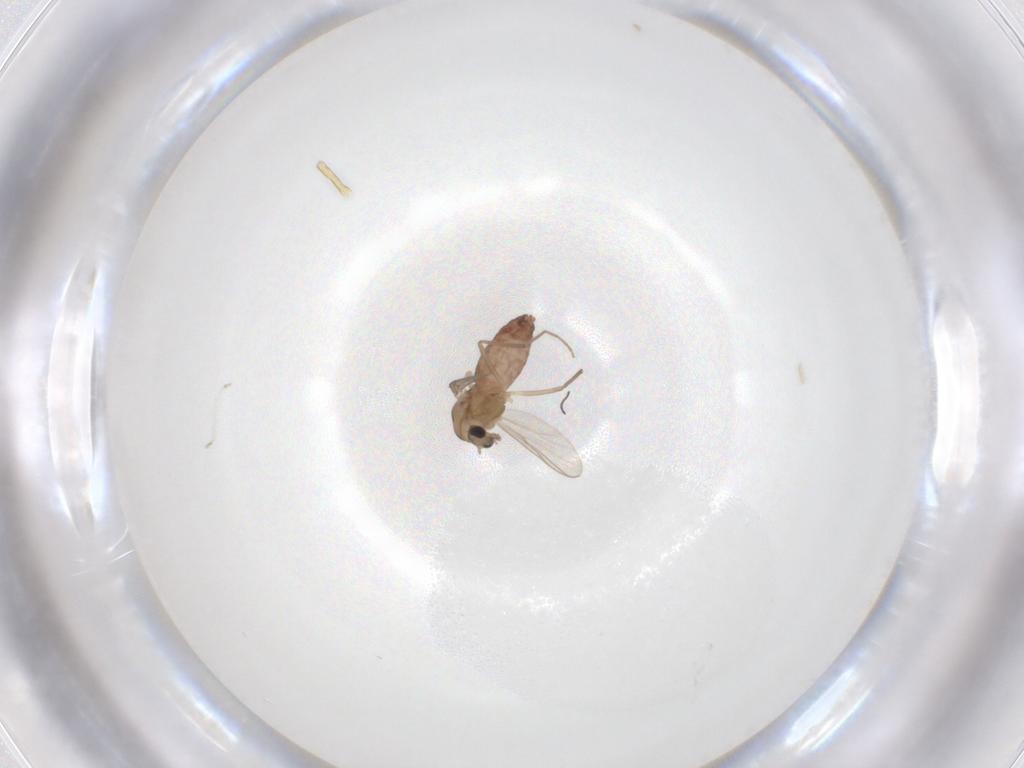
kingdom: Animalia
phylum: Arthropoda
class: Insecta
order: Diptera
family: Chironomidae
